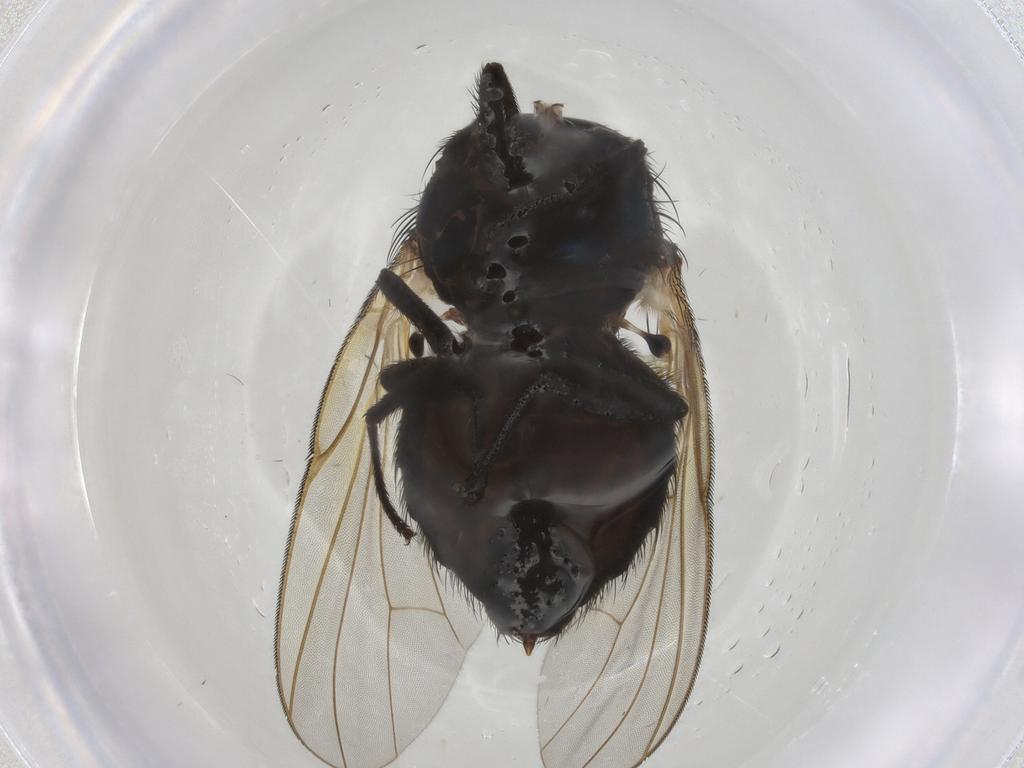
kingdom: Animalia
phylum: Arthropoda
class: Insecta
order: Diptera
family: Lonchaeidae
